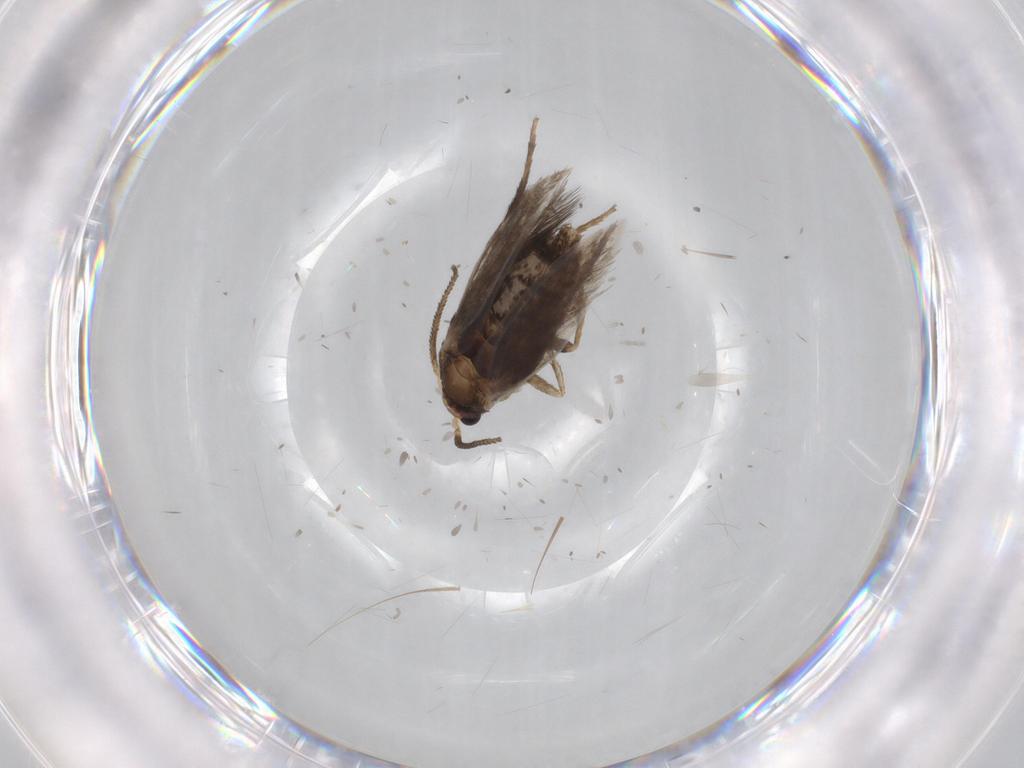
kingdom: Animalia
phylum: Arthropoda
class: Insecta
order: Lepidoptera
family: Nepticulidae
